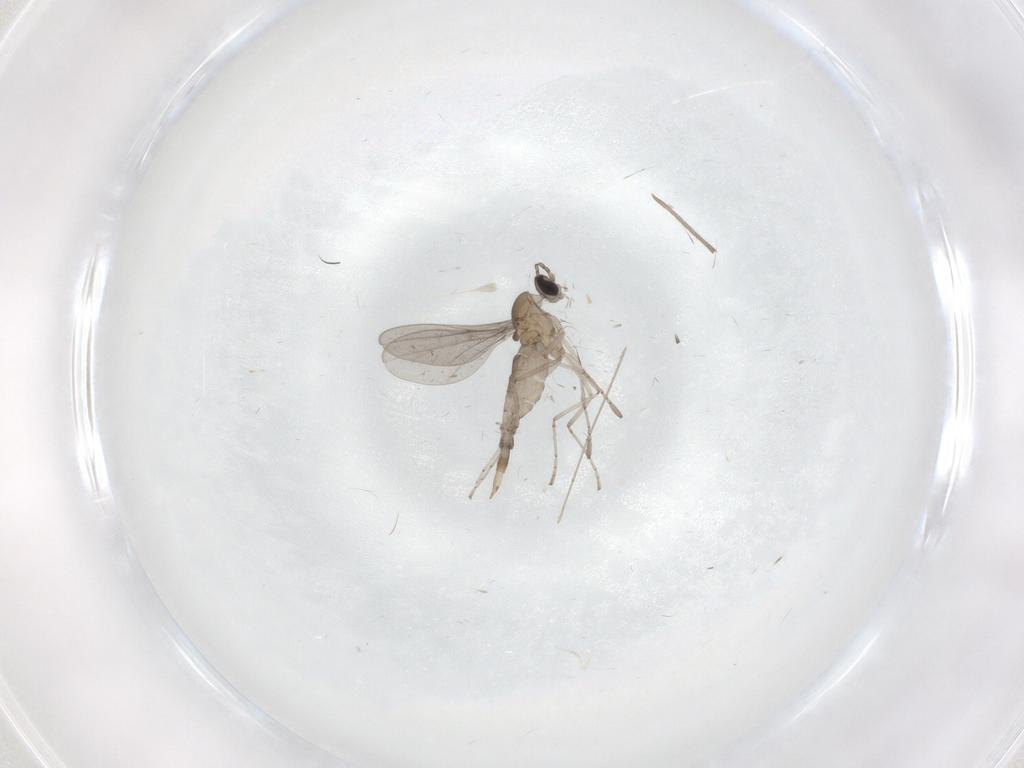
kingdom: Animalia
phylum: Arthropoda
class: Insecta
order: Diptera
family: Cecidomyiidae
